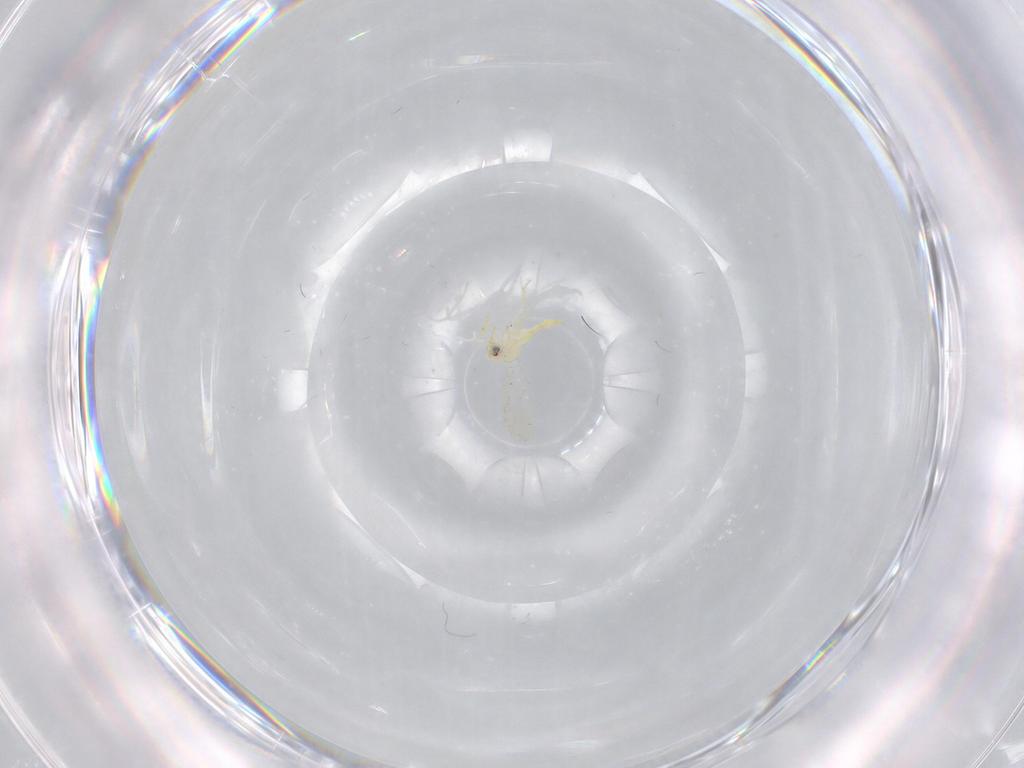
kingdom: Animalia
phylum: Arthropoda
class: Insecta
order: Hemiptera
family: Aleyrodidae
